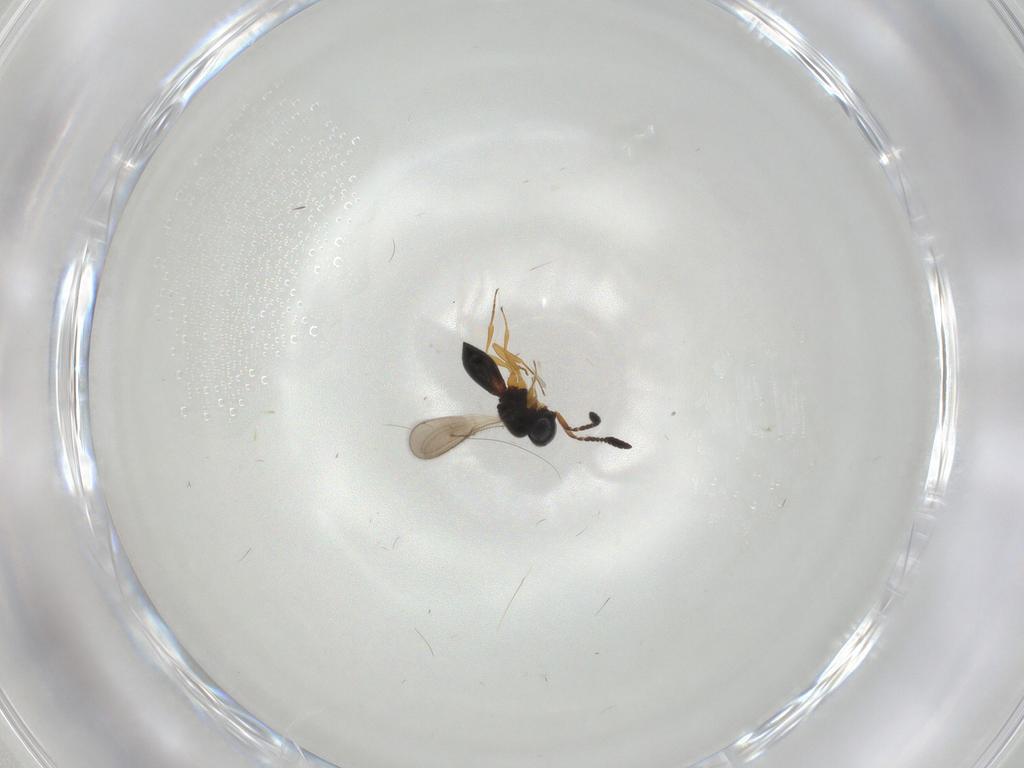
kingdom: Animalia
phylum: Arthropoda
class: Insecta
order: Hymenoptera
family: Scelionidae
